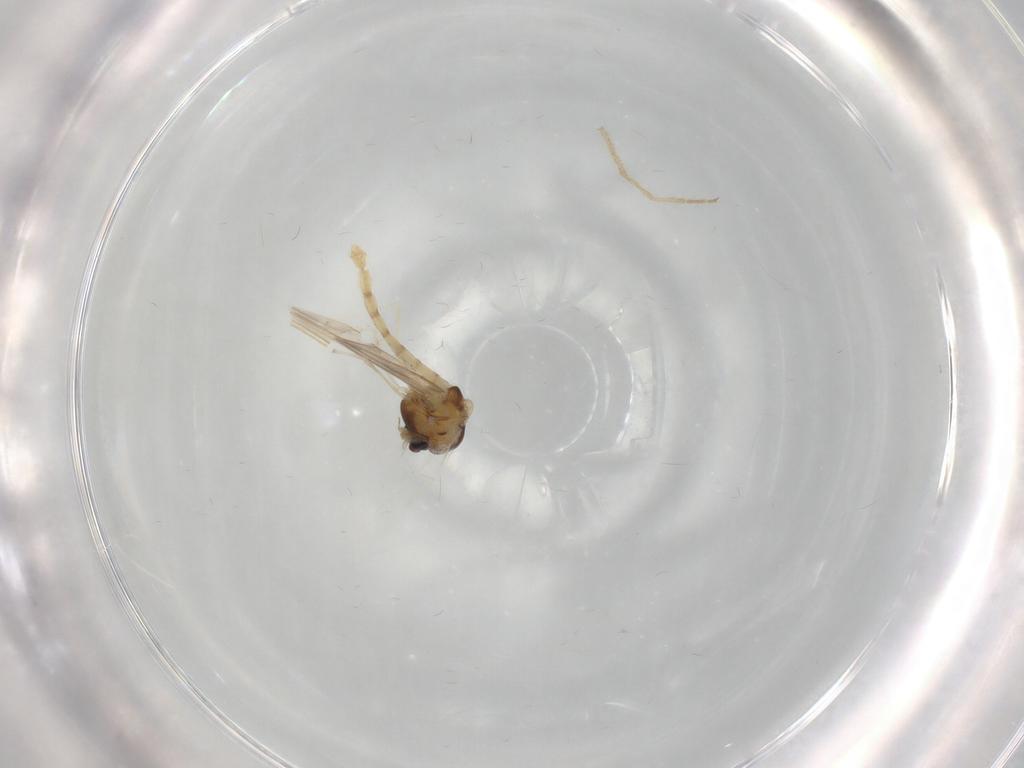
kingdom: Animalia
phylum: Arthropoda
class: Insecta
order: Diptera
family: Chironomidae
